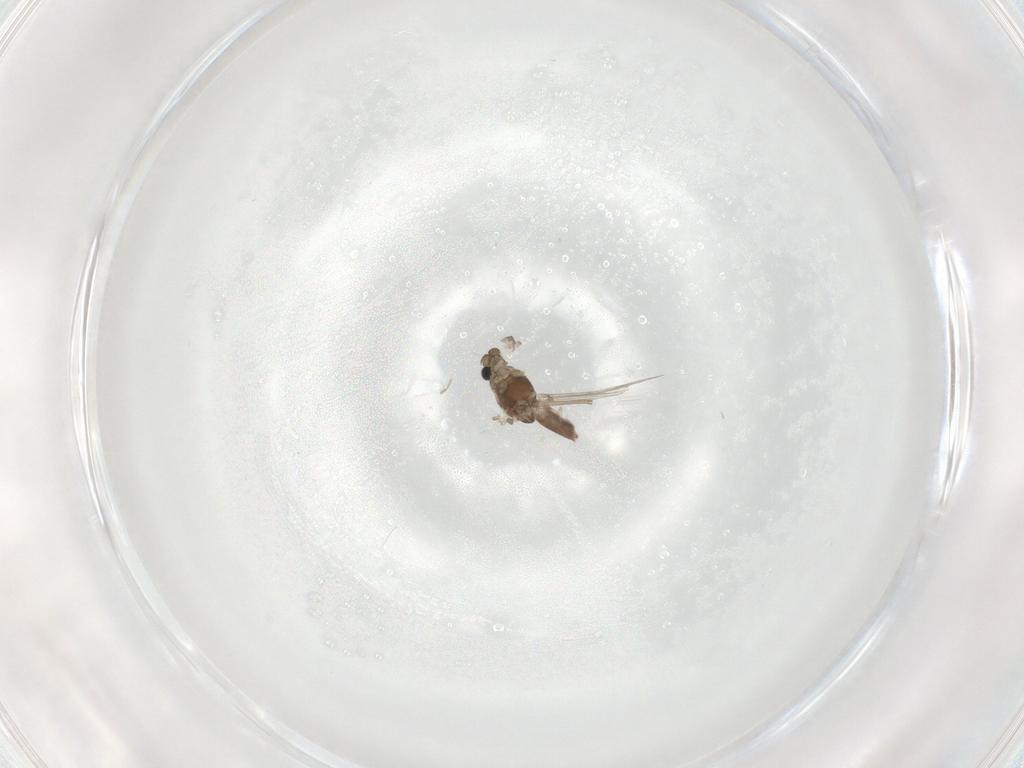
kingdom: Animalia
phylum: Arthropoda
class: Insecta
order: Diptera
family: Chironomidae
